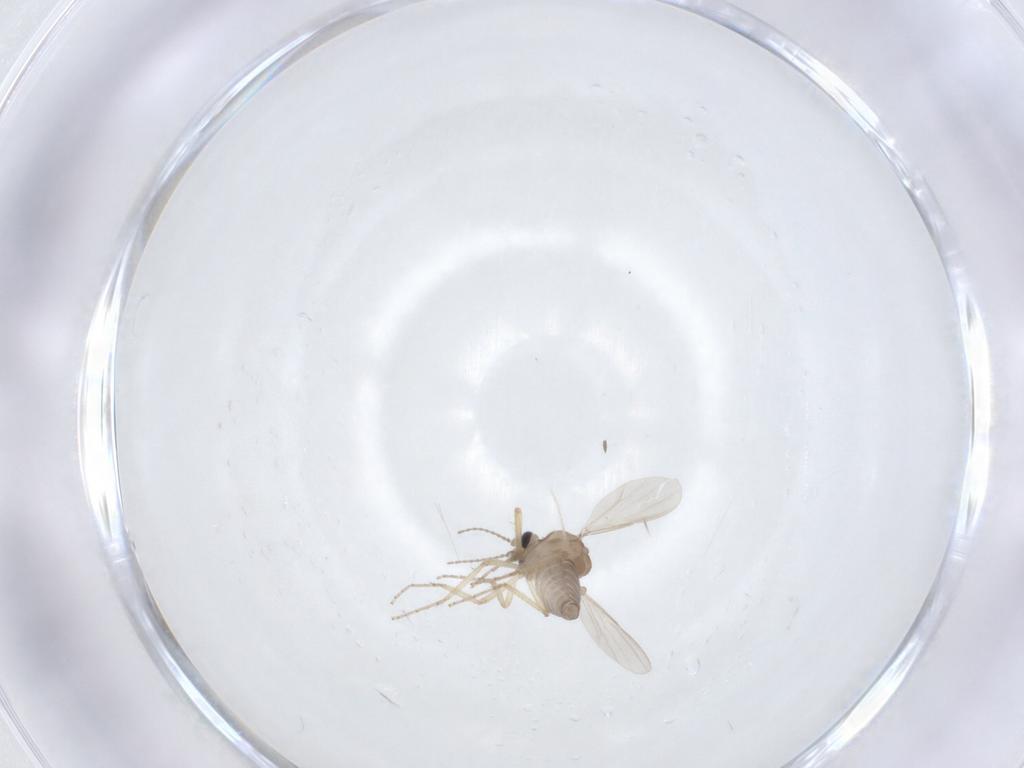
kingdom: Animalia
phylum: Arthropoda
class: Insecta
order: Diptera
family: Ceratopogonidae
